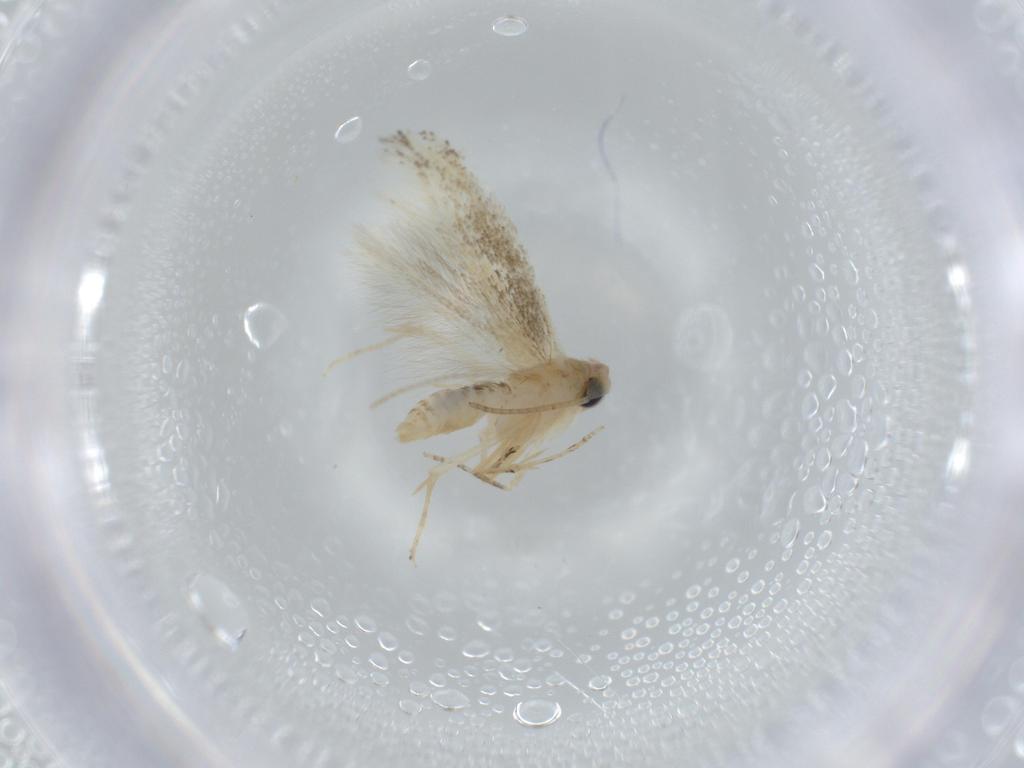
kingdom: Animalia
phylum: Arthropoda
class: Insecta
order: Lepidoptera
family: Bucculatricidae
